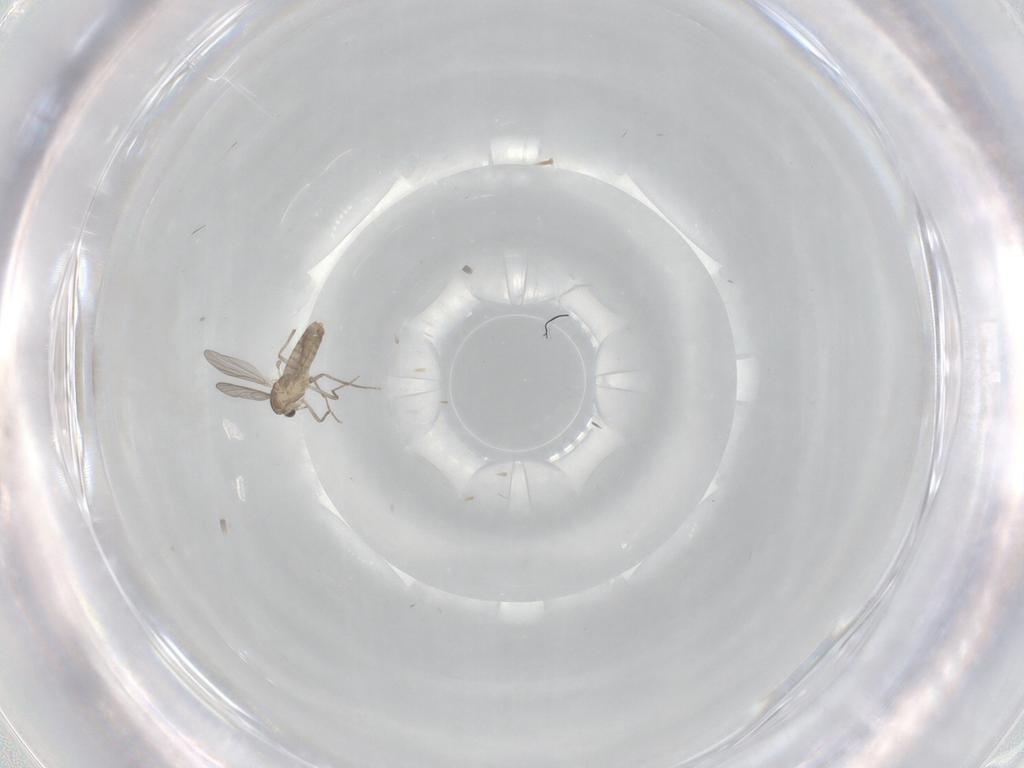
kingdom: Animalia
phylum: Arthropoda
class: Insecta
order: Diptera
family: Chironomidae
